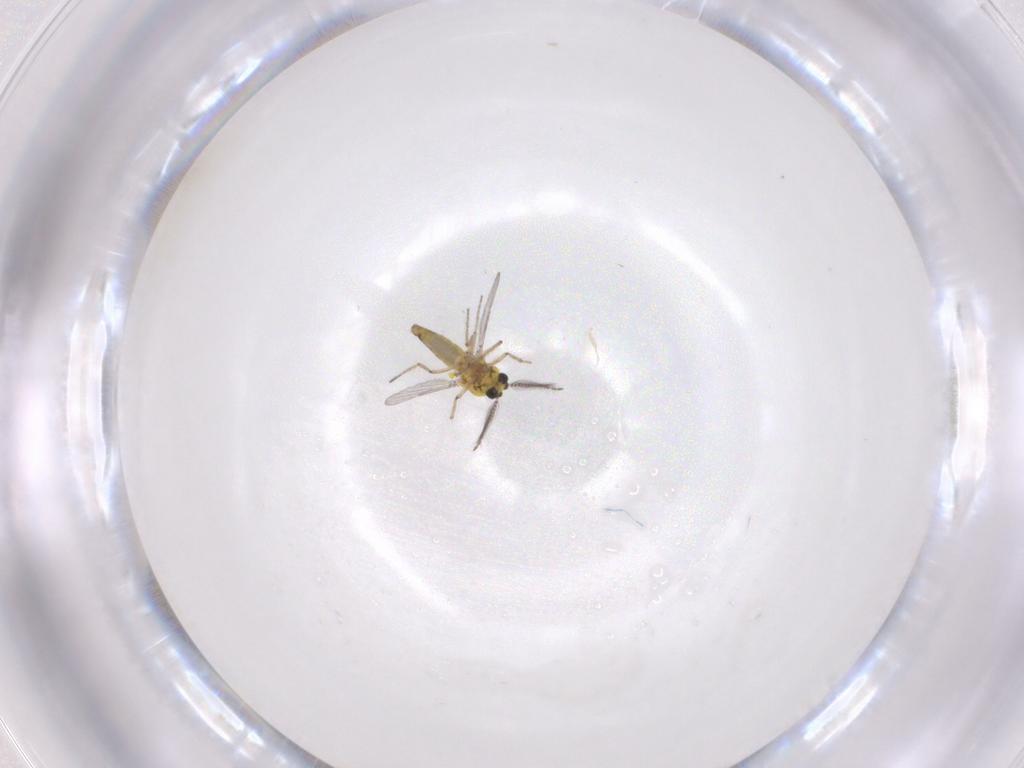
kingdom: Animalia
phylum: Arthropoda
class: Insecta
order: Diptera
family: Ceratopogonidae
